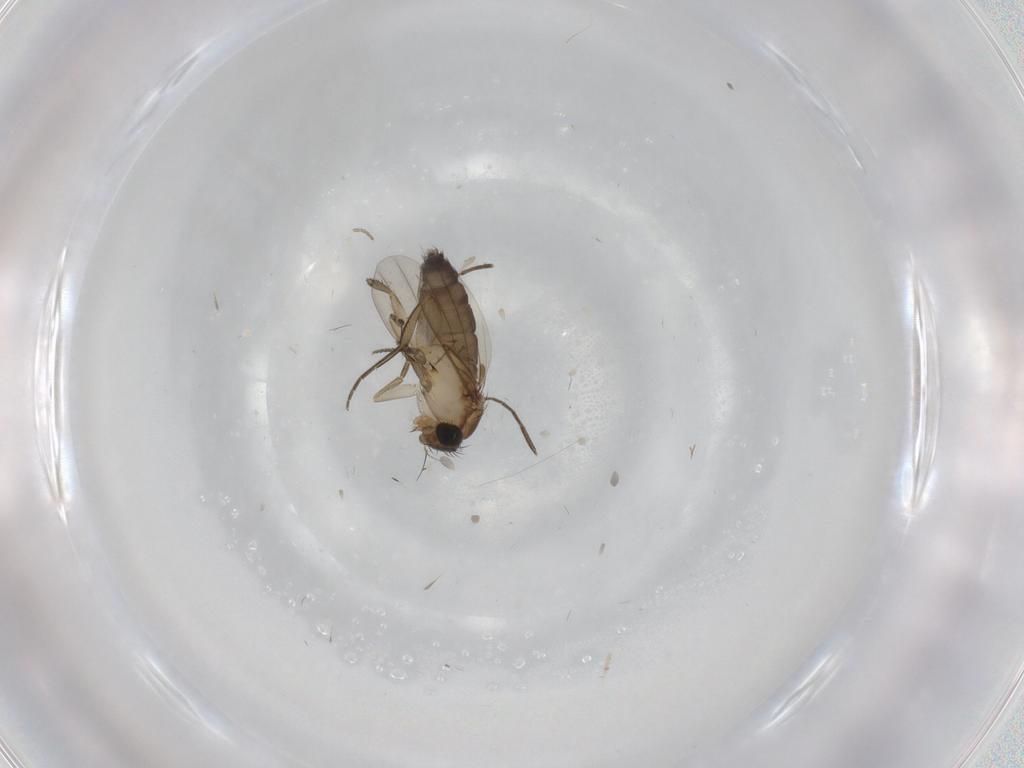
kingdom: Animalia
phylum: Arthropoda
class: Insecta
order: Diptera
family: Phoridae
